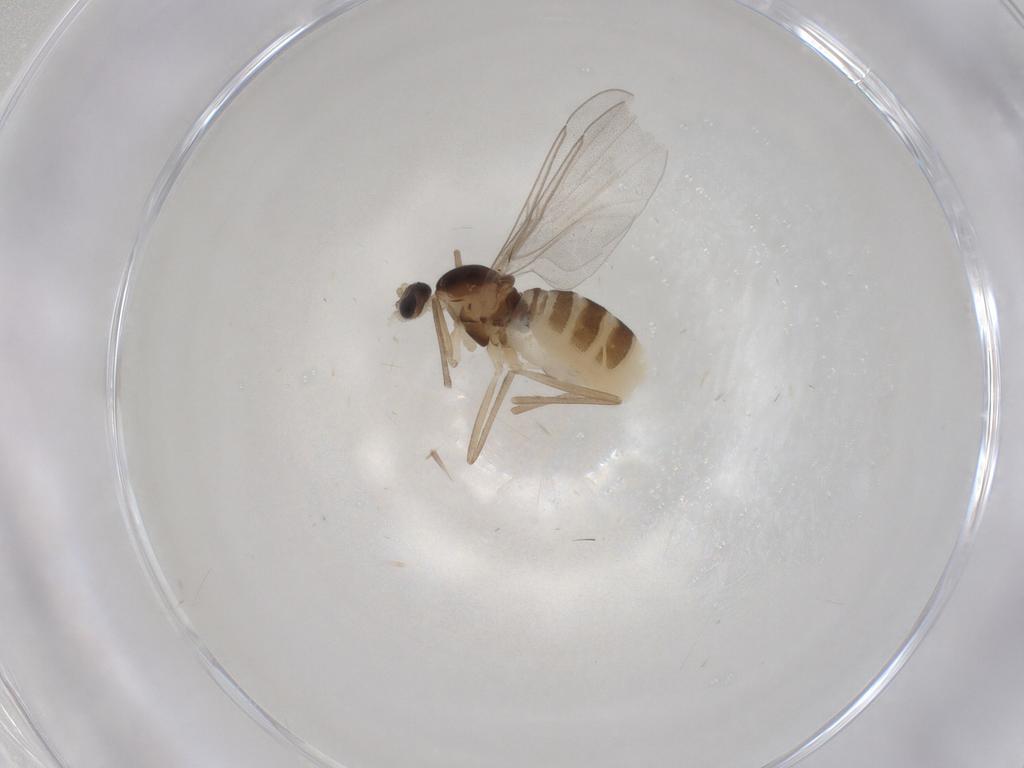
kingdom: Animalia
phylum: Arthropoda
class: Insecta
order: Diptera
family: Cecidomyiidae
